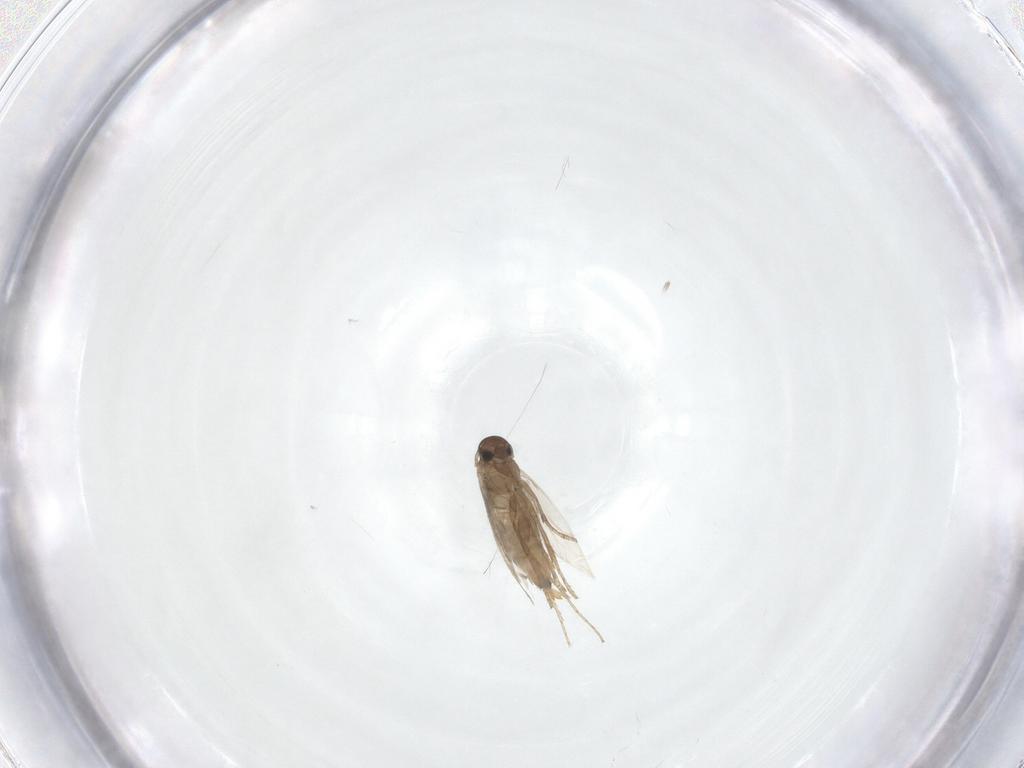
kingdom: Animalia
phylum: Arthropoda
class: Insecta
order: Lepidoptera
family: Heliozelidae
